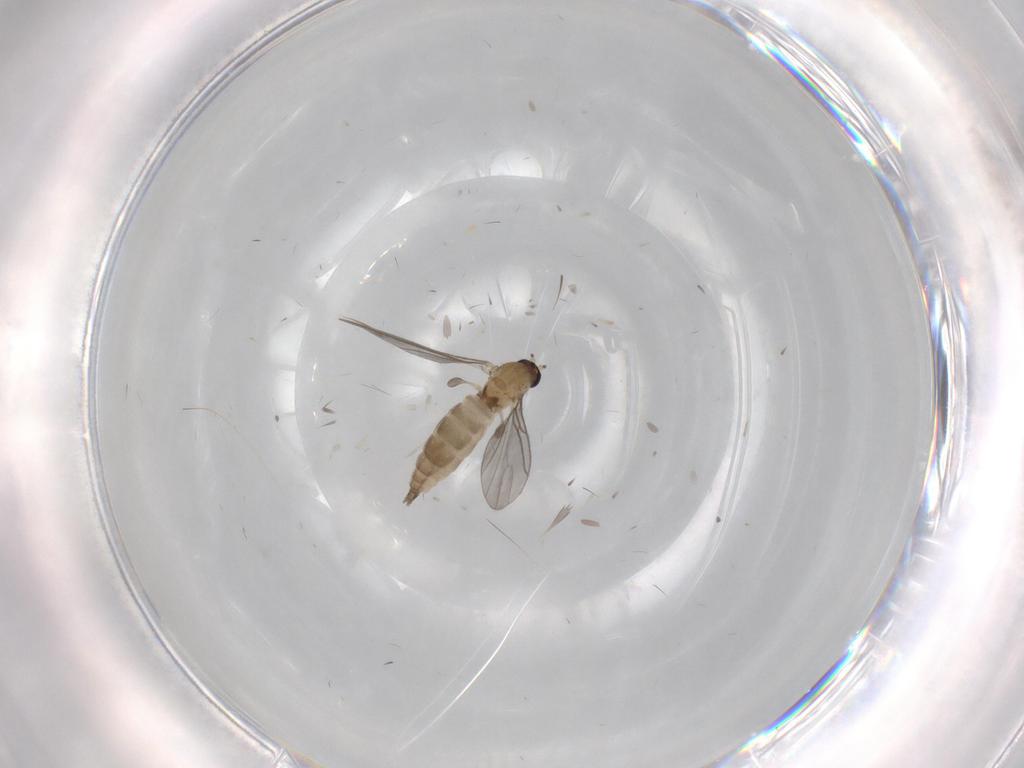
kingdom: Animalia
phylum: Arthropoda
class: Insecta
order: Diptera
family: Sciaridae
